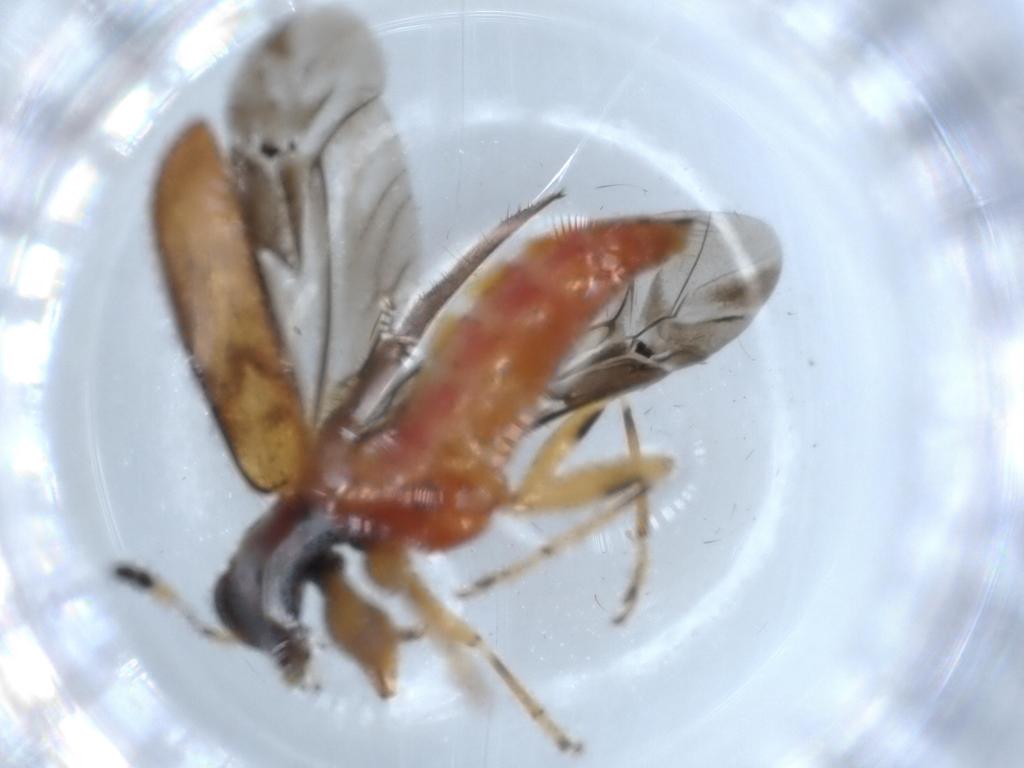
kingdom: Animalia
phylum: Arthropoda
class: Insecta
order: Coleoptera
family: Cleridae
